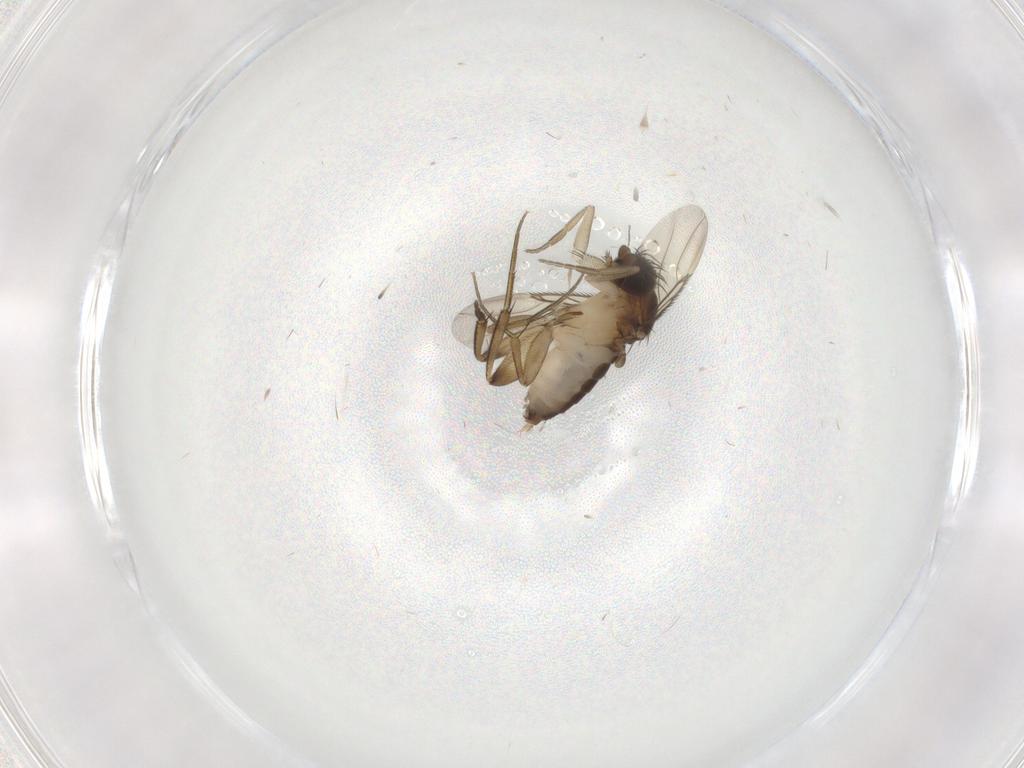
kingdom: Animalia
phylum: Arthropoda
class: Insecta
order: Diptera
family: Phoridae
